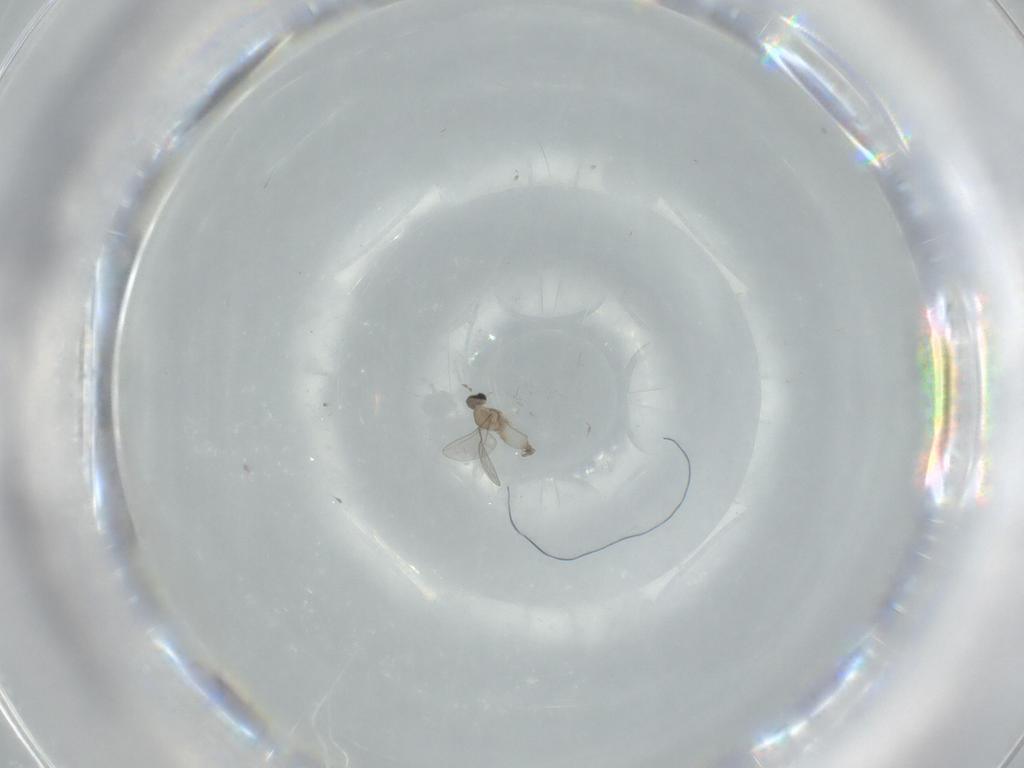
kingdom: Animalia
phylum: Arthropoda
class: Insecta
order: Diptera
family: Cecidomyiidae
